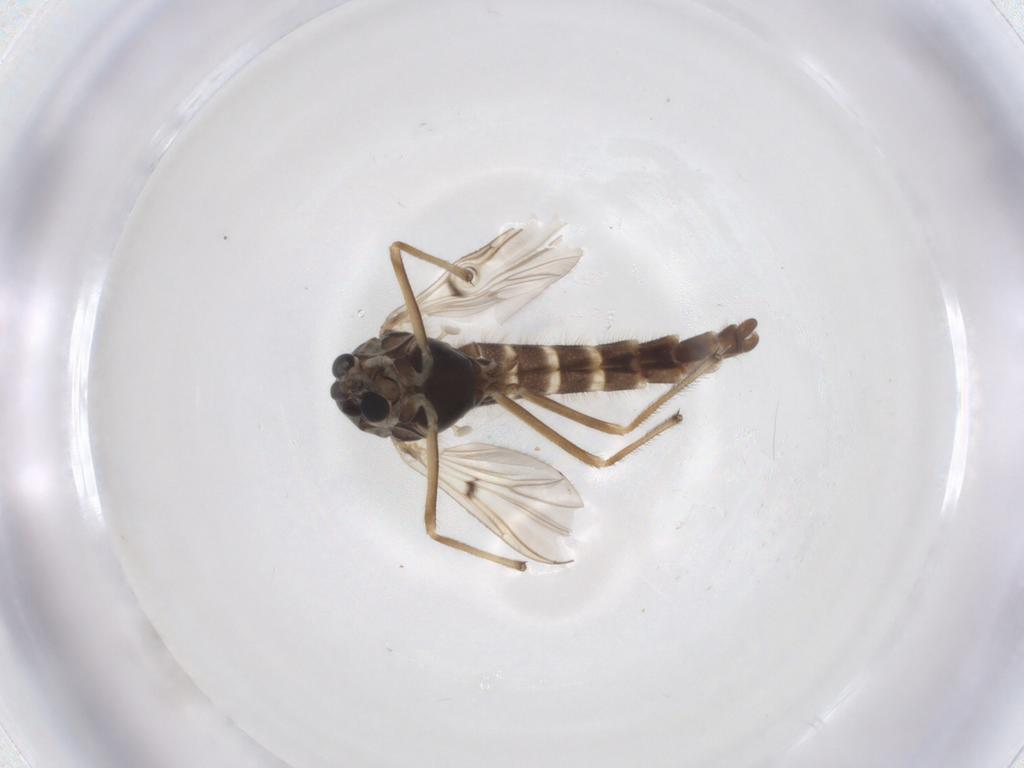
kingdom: Animalia
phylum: Arthropoda
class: Insecta
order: Diptera
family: Chironomidae
